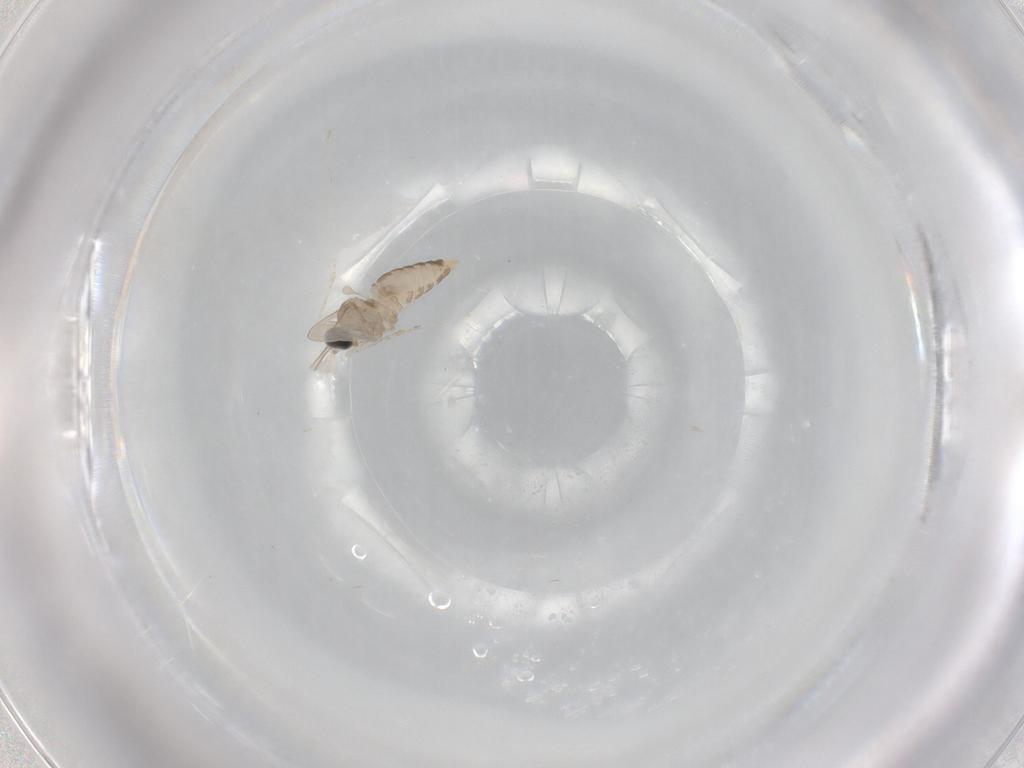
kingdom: Animalia
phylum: Arthropoda
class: Insecta
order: Diptera
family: Cecidomyiidae
